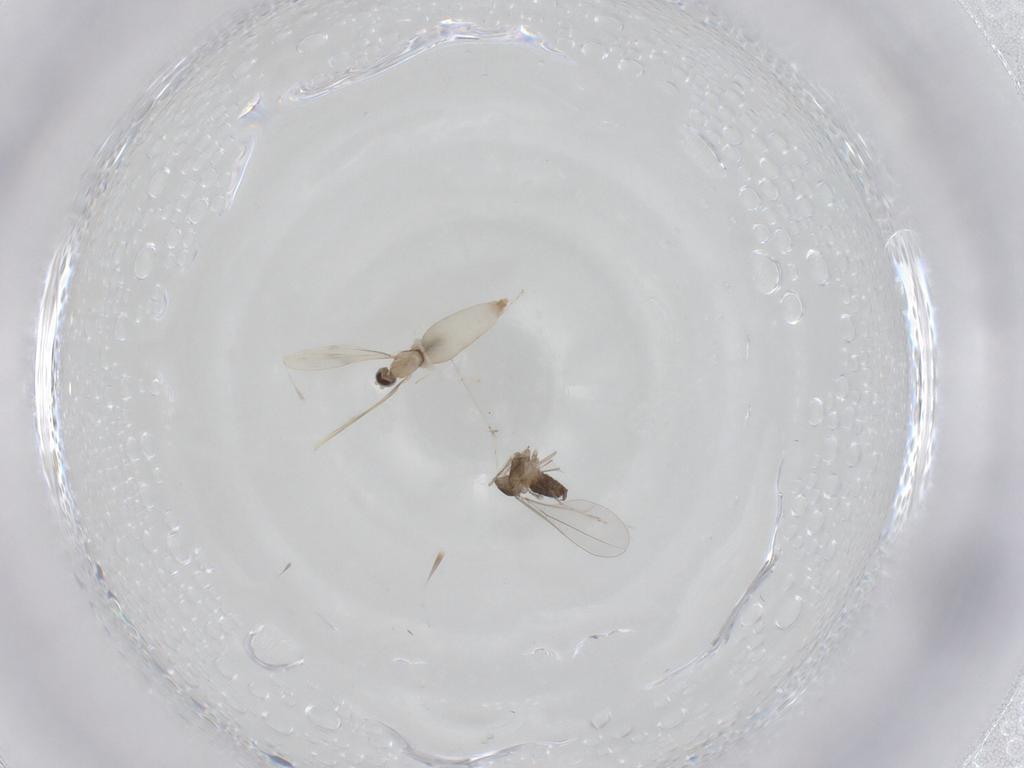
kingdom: Animalia
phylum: Arthropoda
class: Insecta
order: Diptera
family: Cecidomyiidae
